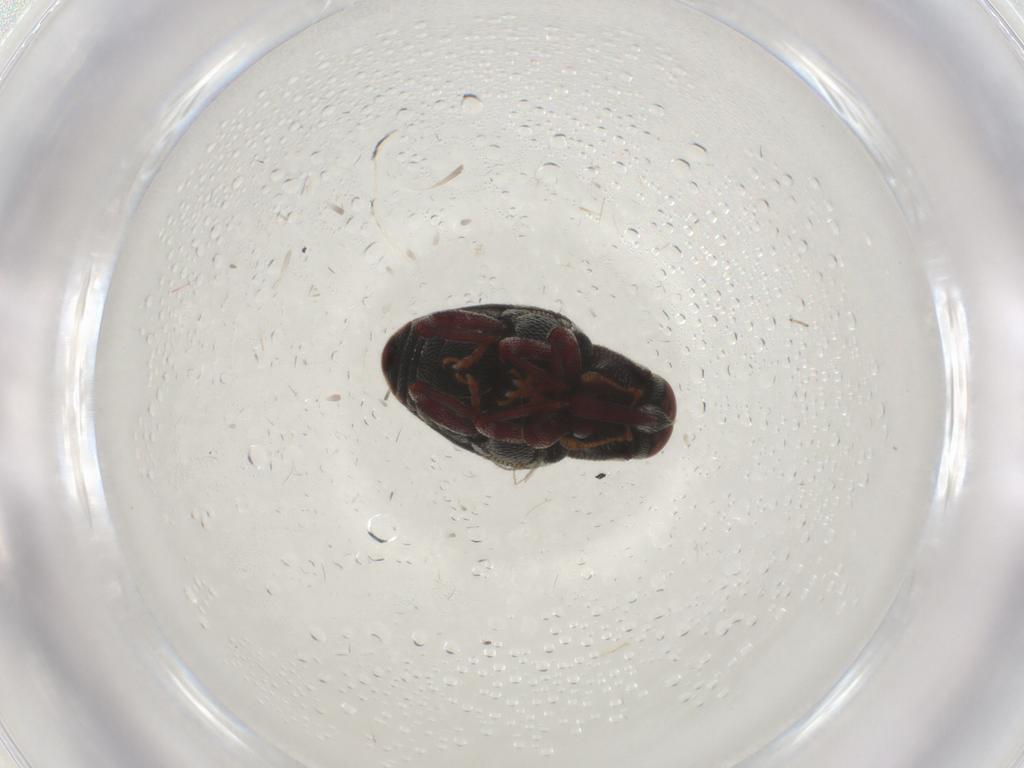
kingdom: Animalia
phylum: Arthropoda
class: Insecta
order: Coleoptera
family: Curculionidae
